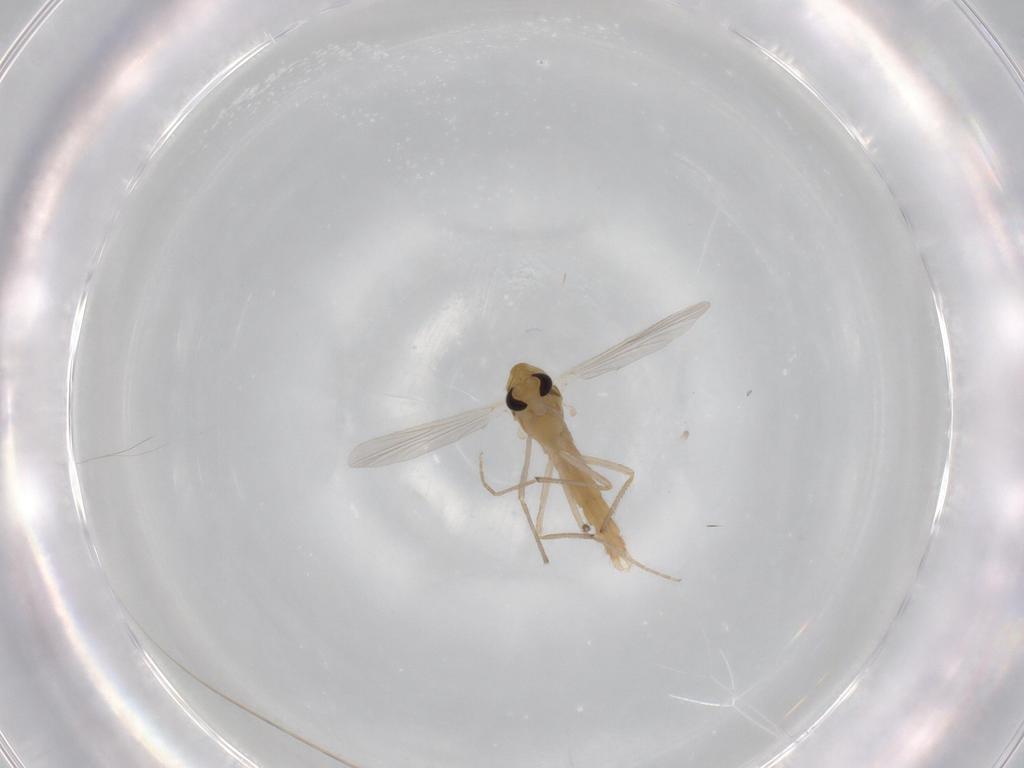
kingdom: Animalia
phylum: Arthropoda
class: Insecta
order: Diptera
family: Chironomidae
